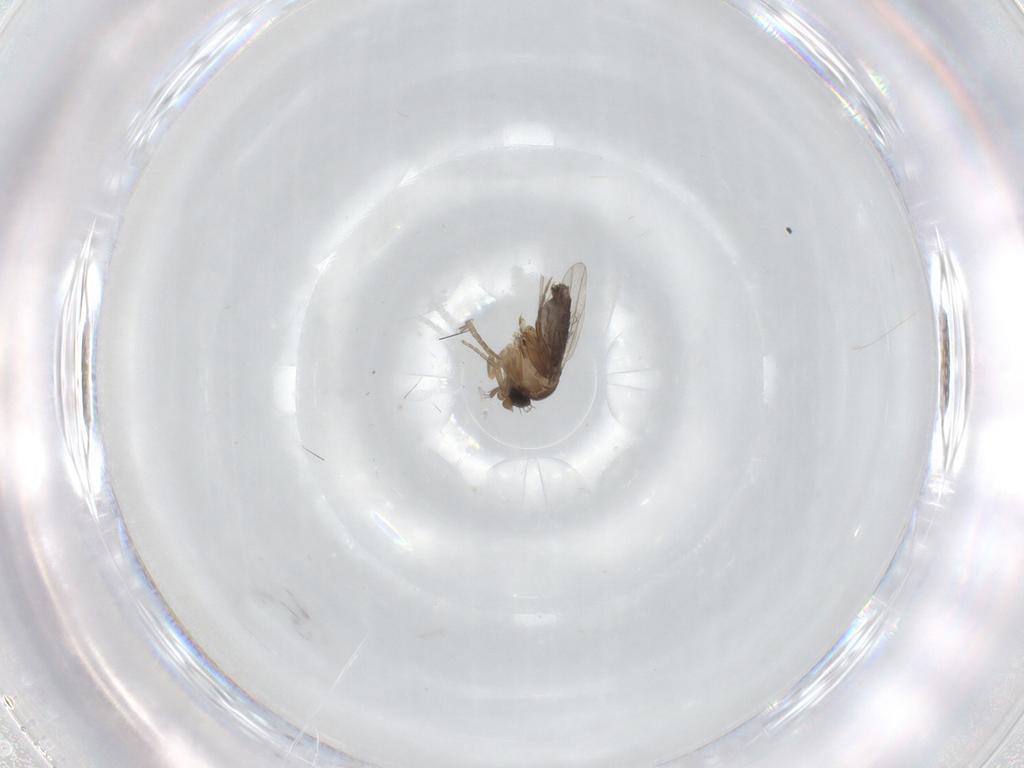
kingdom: Animalia
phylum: Arthropoda
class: Insecta
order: Diptera
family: Phoridae
